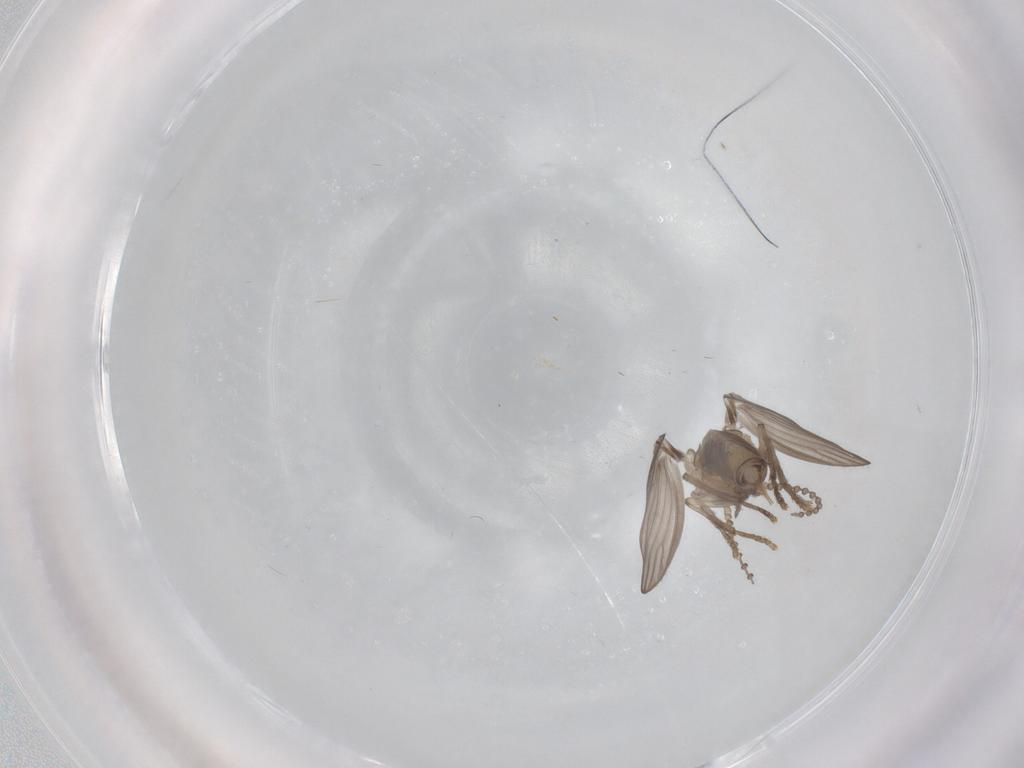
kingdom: Animalia
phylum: Arthropoda
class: Insecta
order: Diptera
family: Psychodidae
